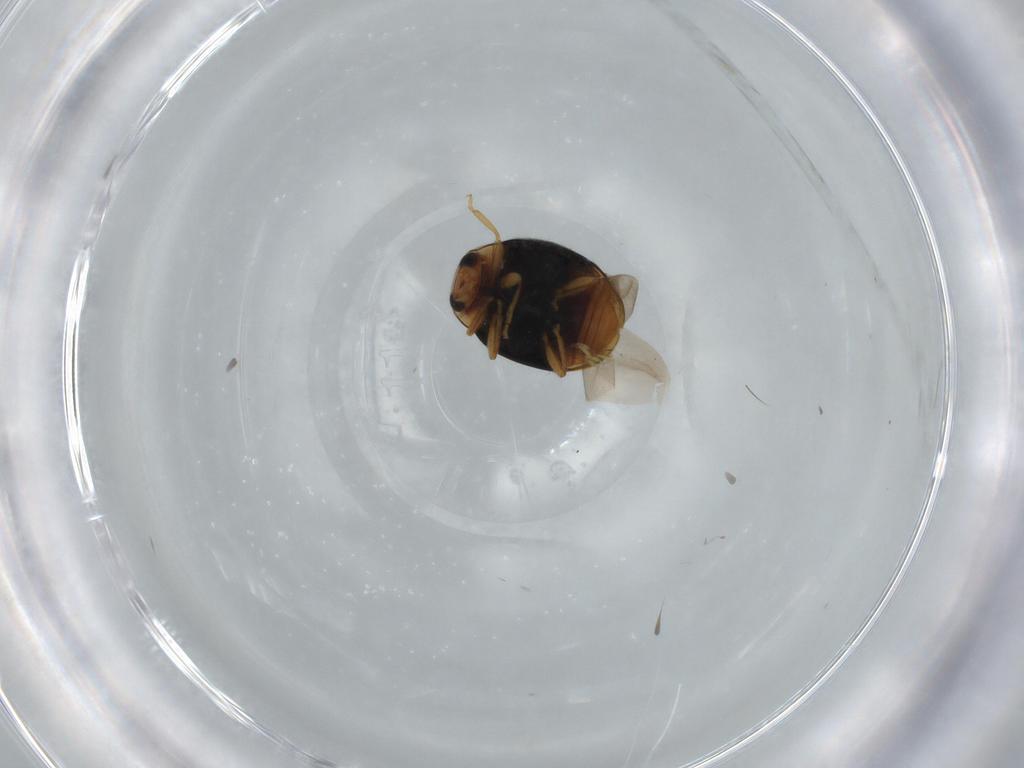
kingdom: Animalia
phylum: Arthropoda
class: Insecta
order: Coleoptera
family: Coccinellidae
